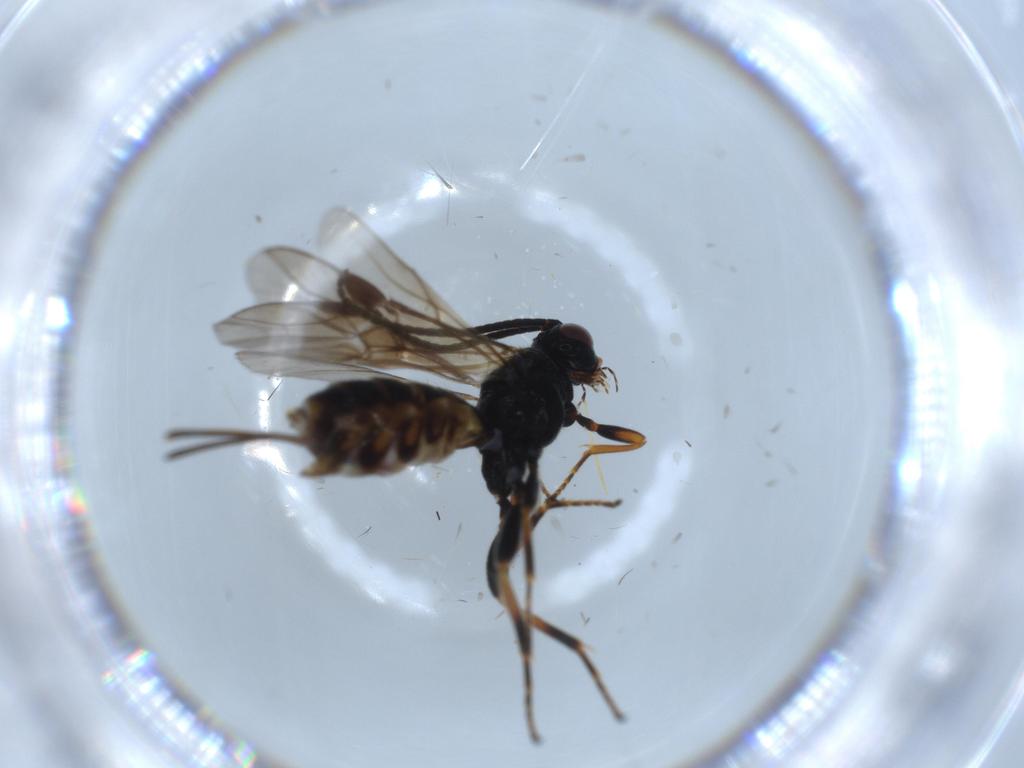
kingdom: Animalia
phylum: Arthropoda
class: Insecta
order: Hymenoptera
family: Braconidae
